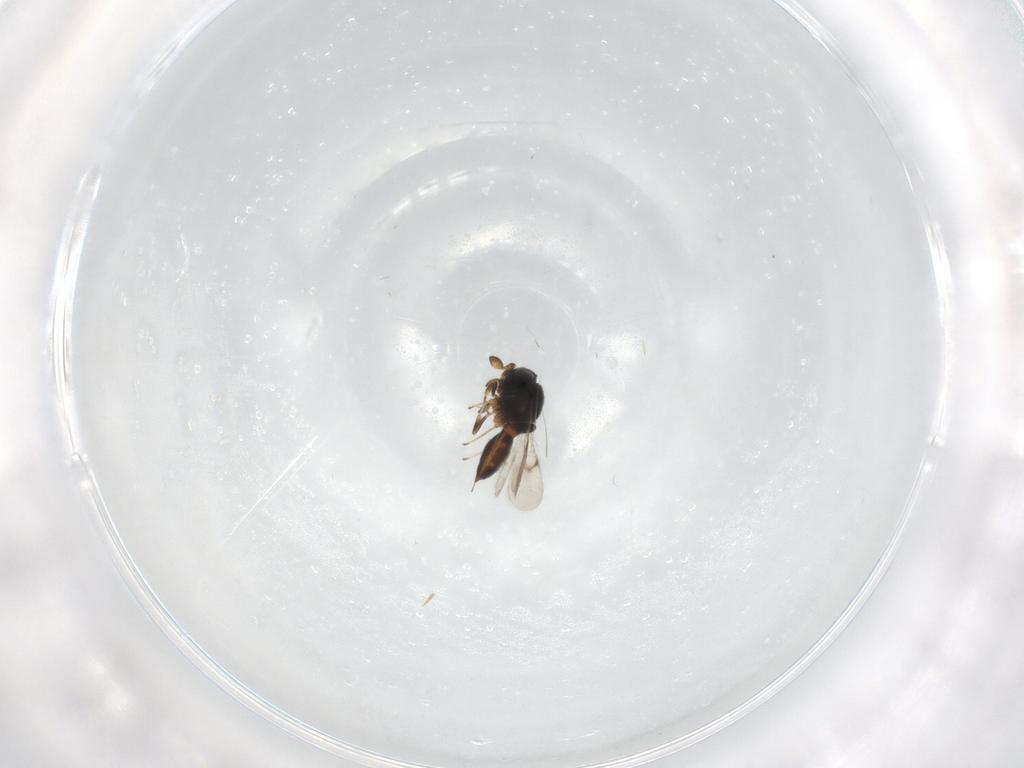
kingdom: Animalia
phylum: Arthropoda
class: Insecta
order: Hymenoptera
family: Scelionidae
